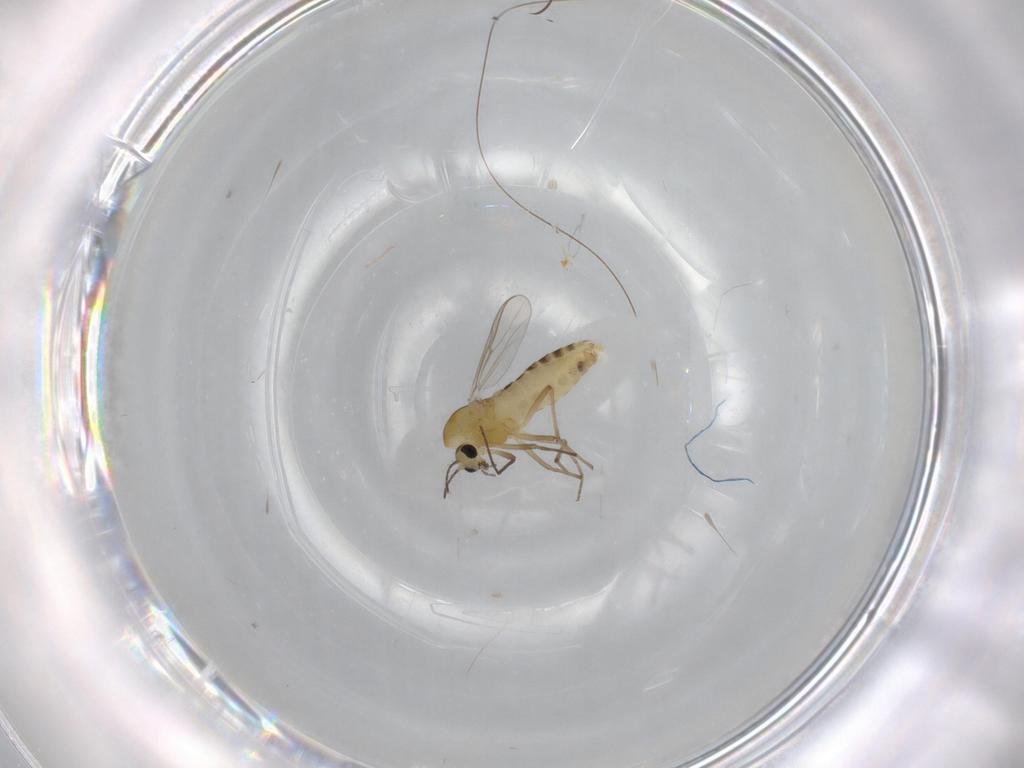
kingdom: Animalia
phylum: Arthropoda
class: Insecta
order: Diptera
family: Chironomidae
